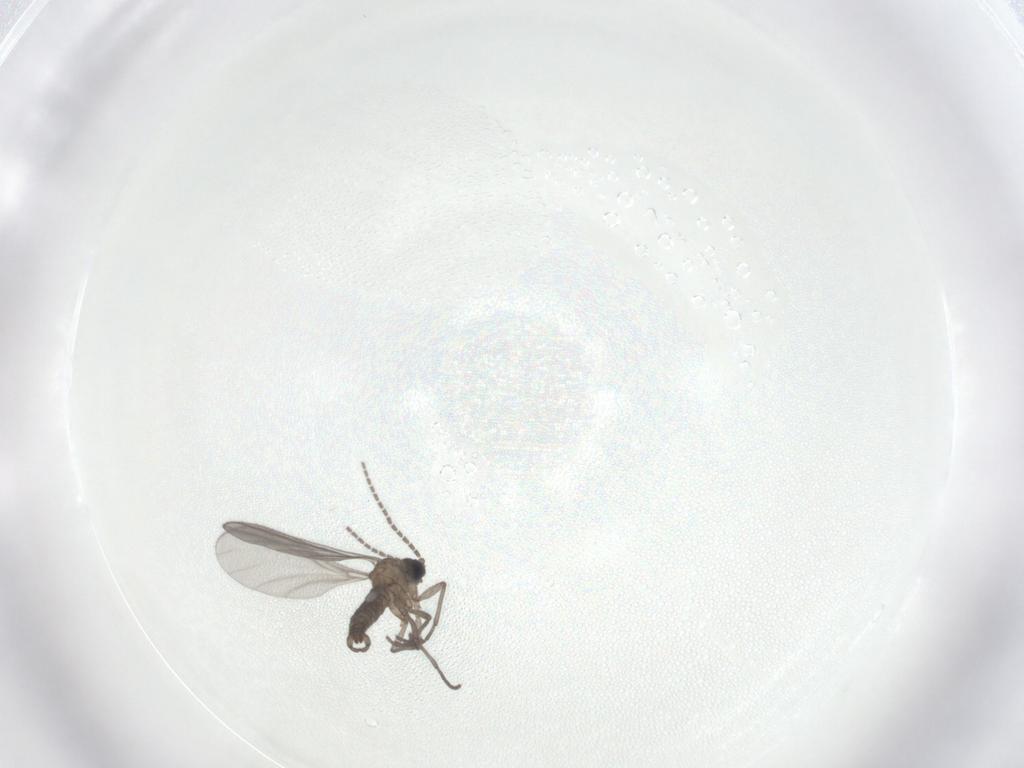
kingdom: Animalia
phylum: Arthropoda
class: Insecta
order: Diptera
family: Sciaridae
